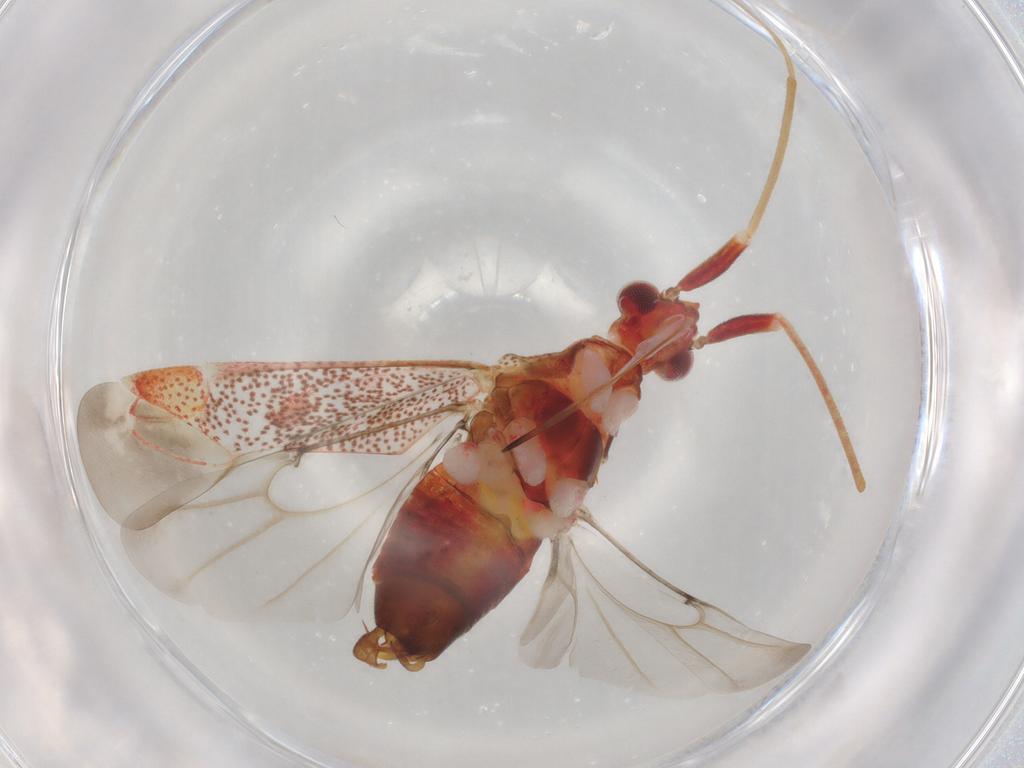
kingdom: Animalia
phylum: Arthropoda
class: Insecta
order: Hemiptera
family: Miridae
